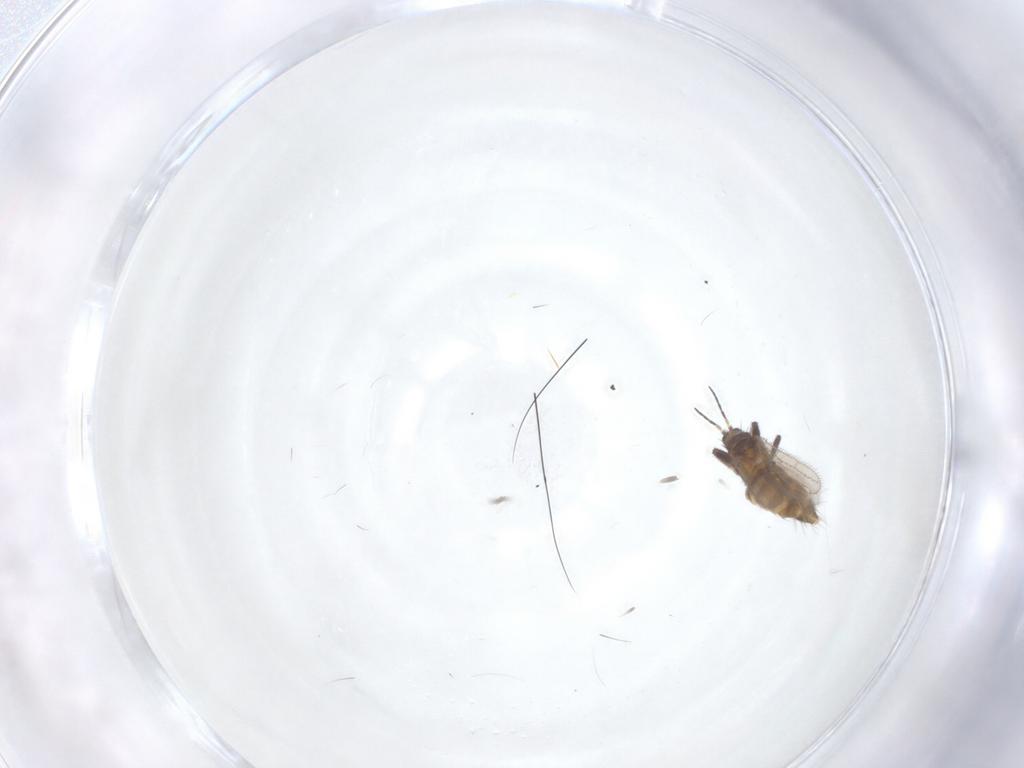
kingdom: Animalia
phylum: Arthropoda
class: Insecta
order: Diptera
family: Ceratopogonidae
